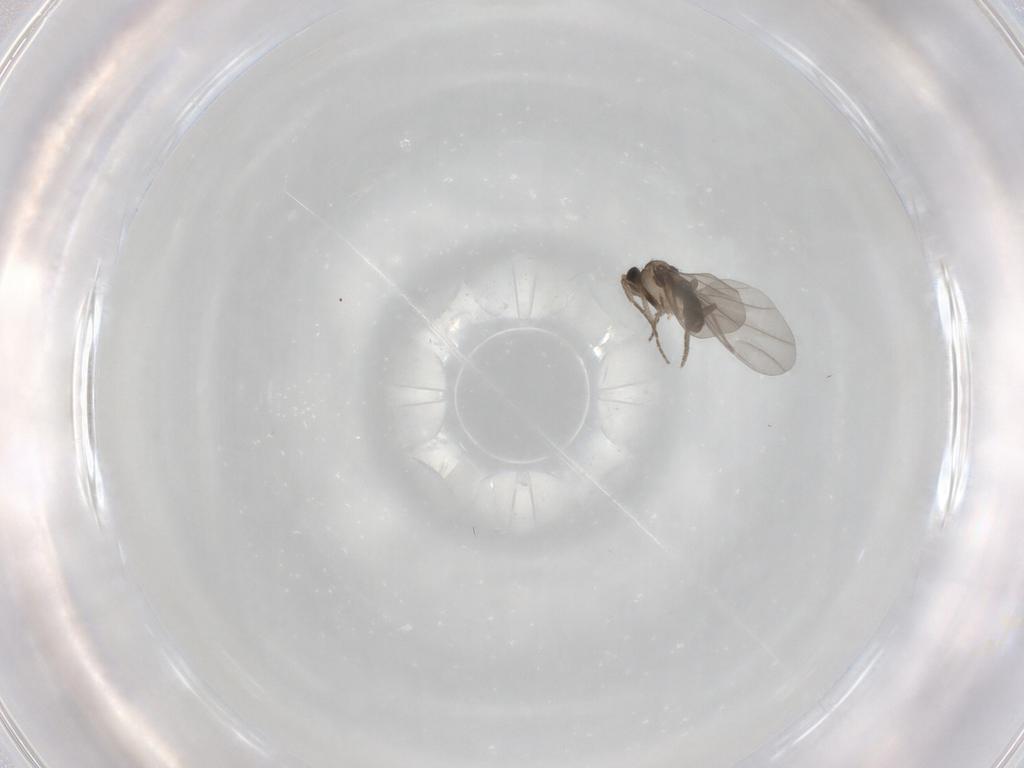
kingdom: Animalia
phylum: Arthropoda
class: Insecta
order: Diptera
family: Phoridae
